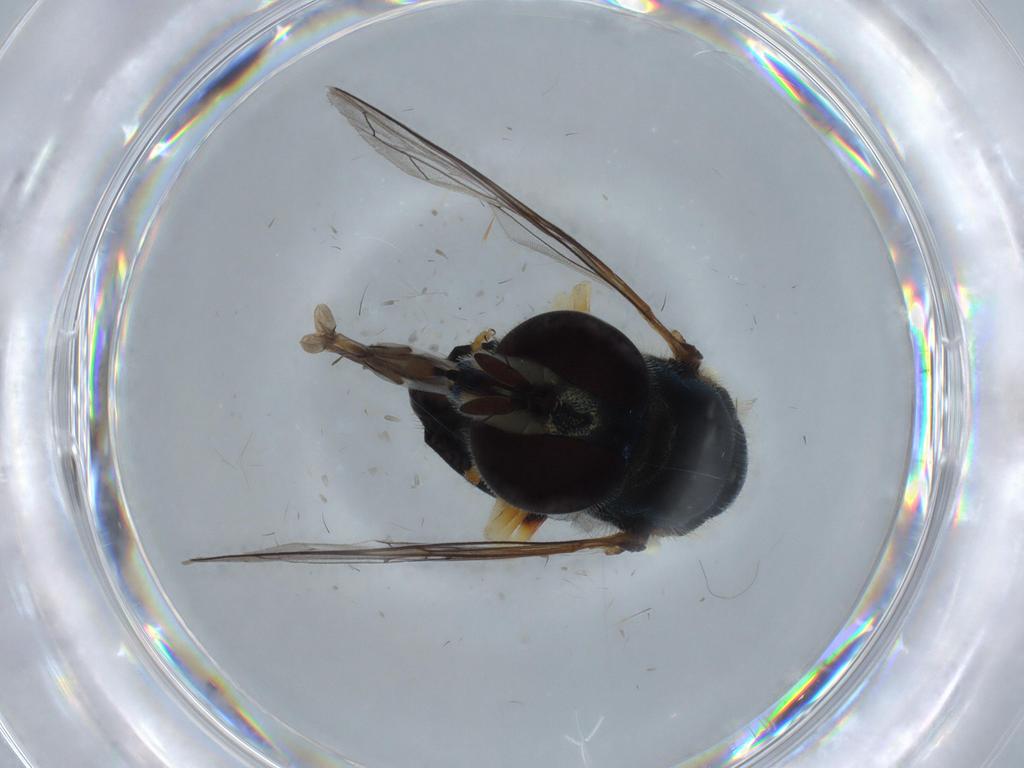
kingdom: Animalia
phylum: Arthropoda
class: Insecta
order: Diptera
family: Syrphidae
